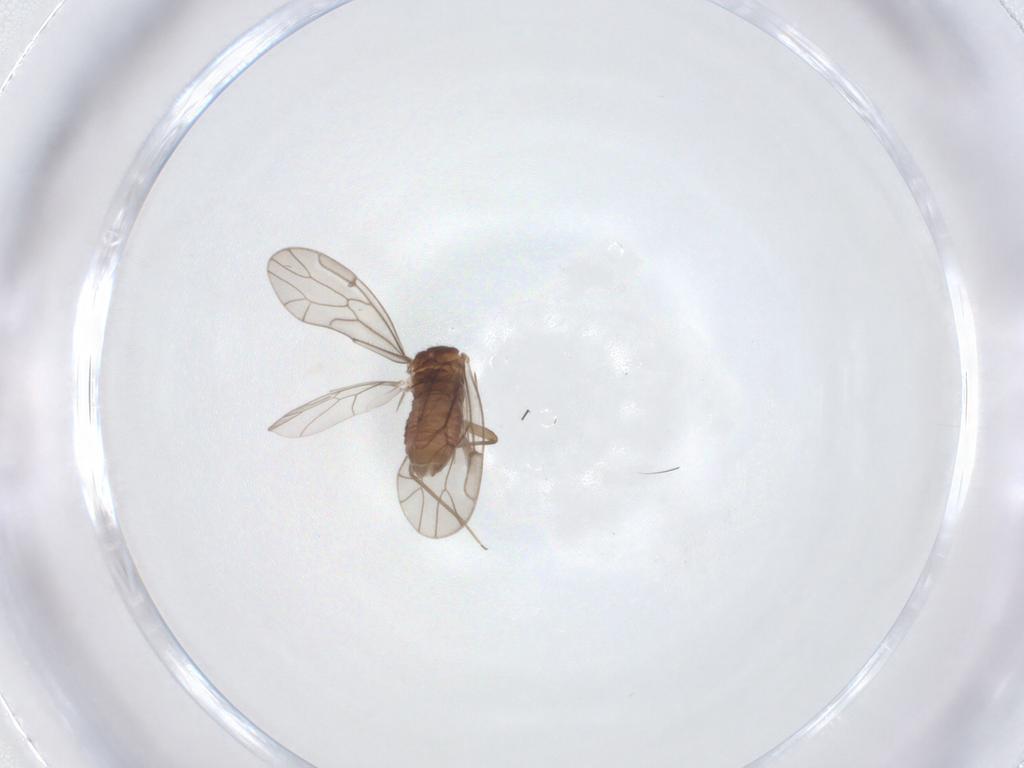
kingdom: Animalia
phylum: Arthropoda
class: Insecta
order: Psocodea
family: Ectopsocidae
